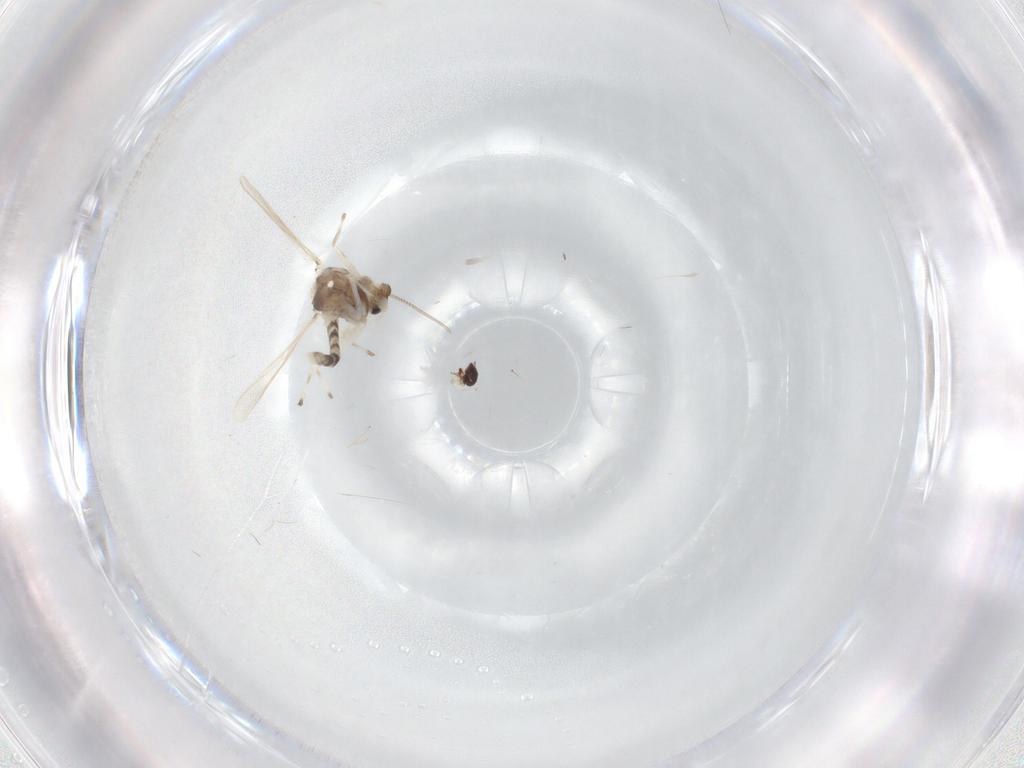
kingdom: Animalia
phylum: Arthropoda
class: Insecta
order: Diptera
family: Chironomidae
